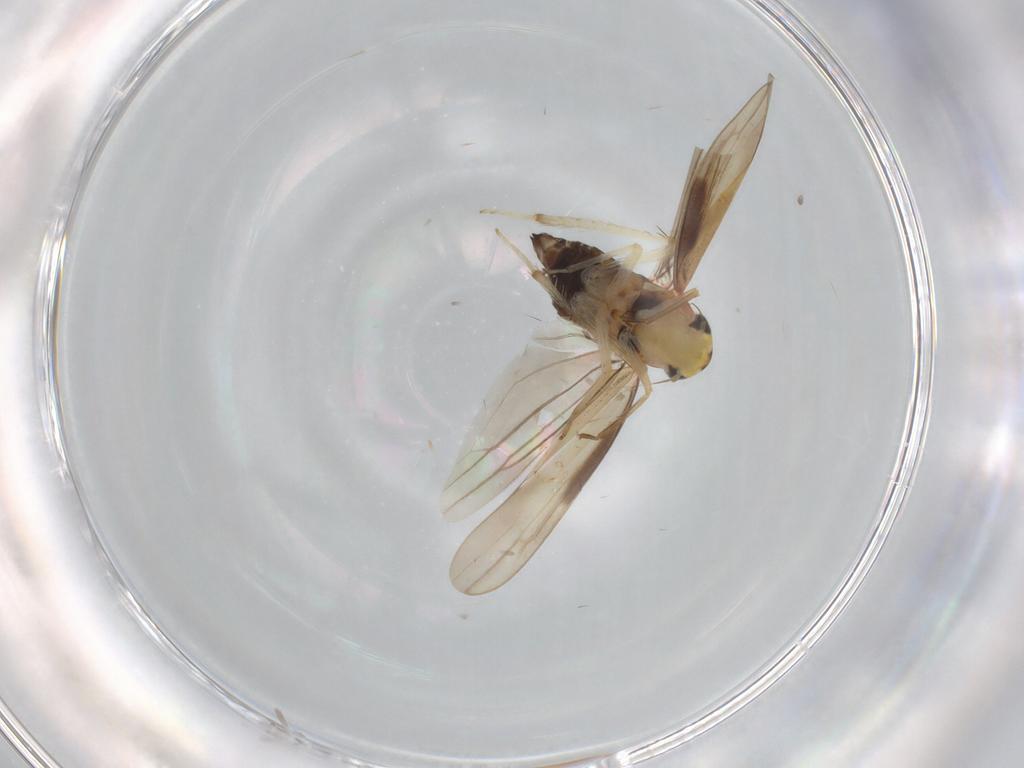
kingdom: Animalia
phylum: Arthropoda
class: Insecta
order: Hemiptera
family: Cicadellidae
